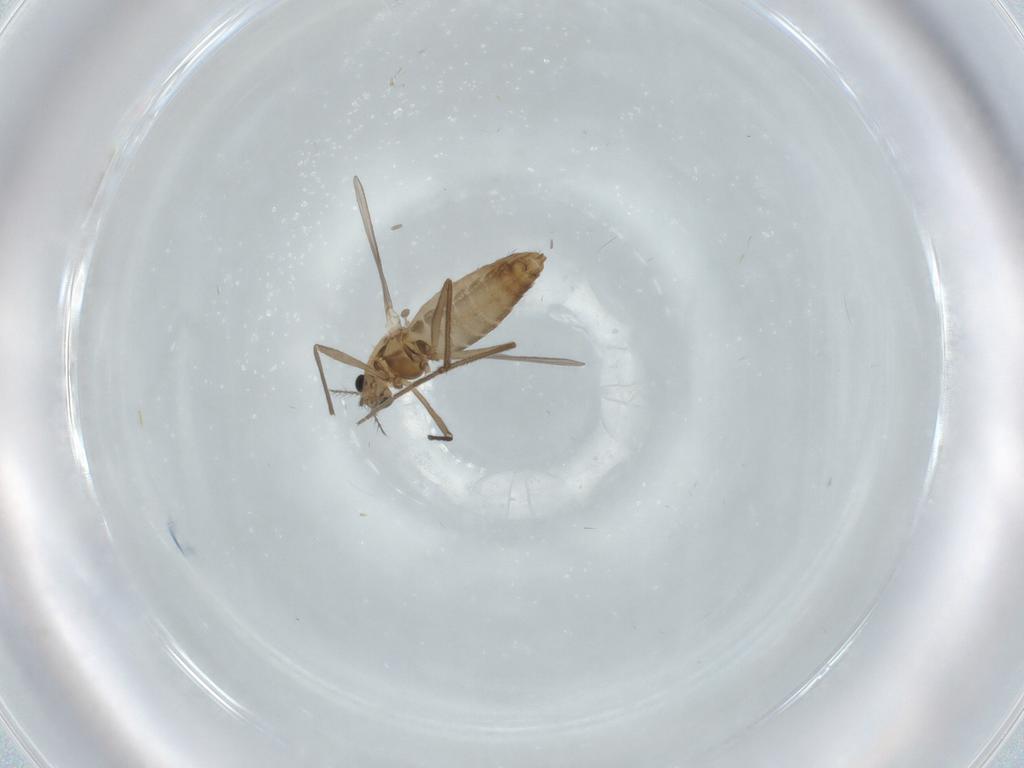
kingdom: Animalia
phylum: Arthropoda
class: Insecta
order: Diptera
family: Chironomidae
